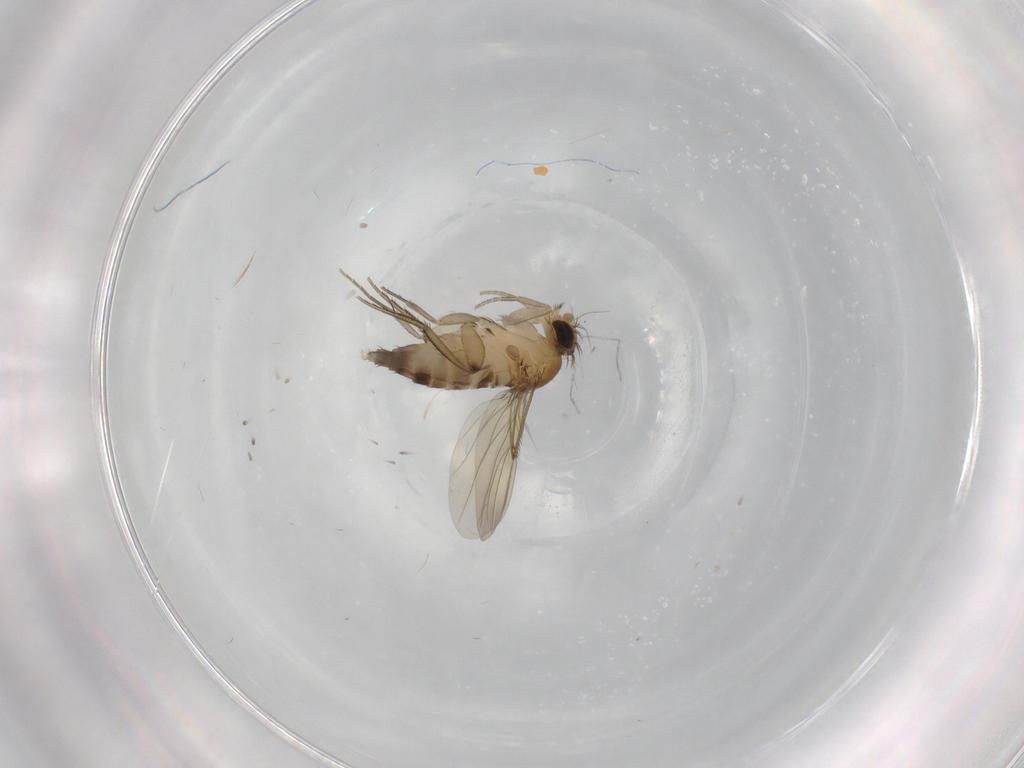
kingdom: Animalia
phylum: Arthropoda
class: Insecta
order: Diptera
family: Phoridae
